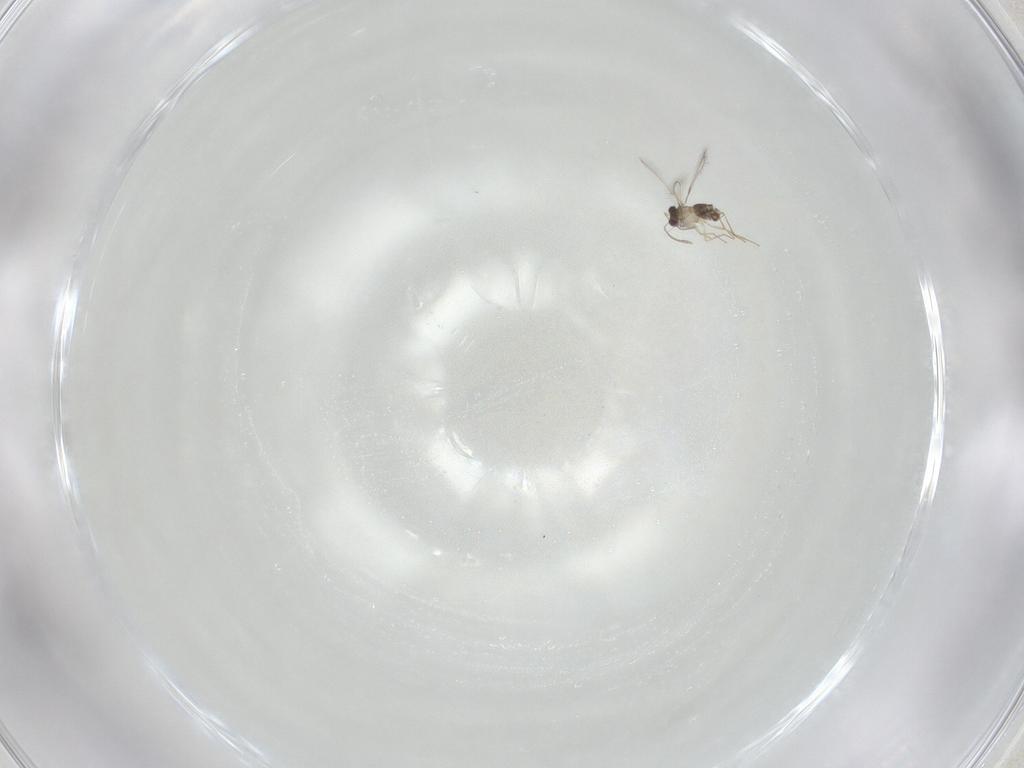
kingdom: Animalia
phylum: Arthropoda
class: Insecta
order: Hymenoptera
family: Mymaridae
